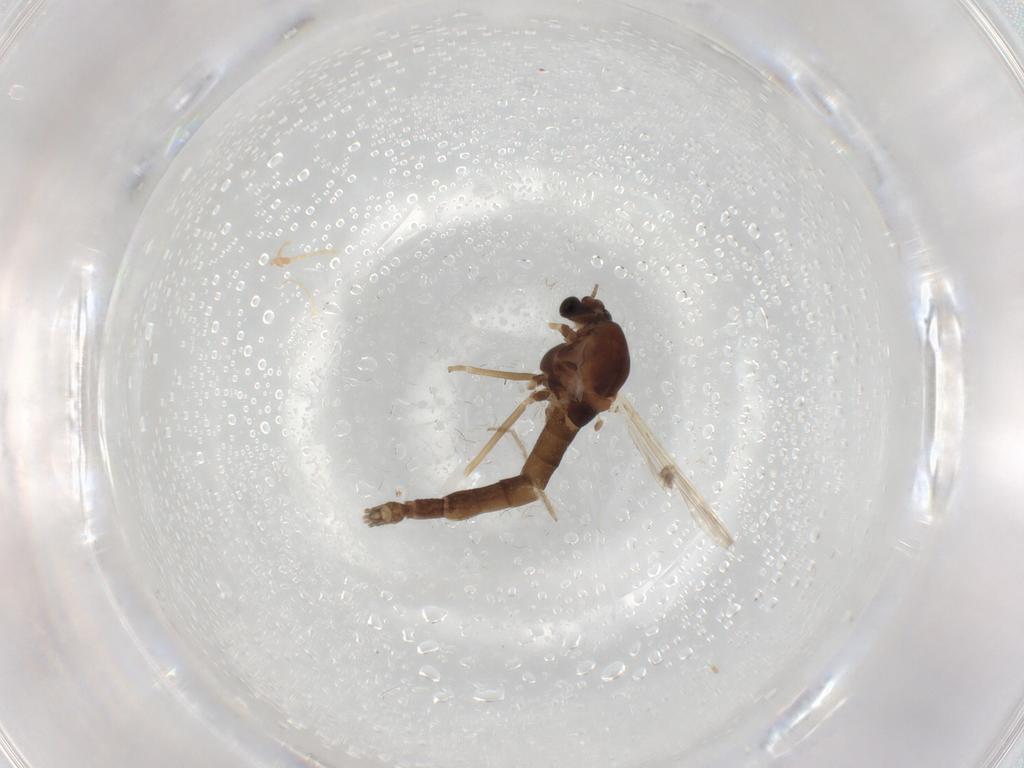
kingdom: Animalia
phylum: Arthropoda
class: Insecta
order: Diptera
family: Chironomidae
